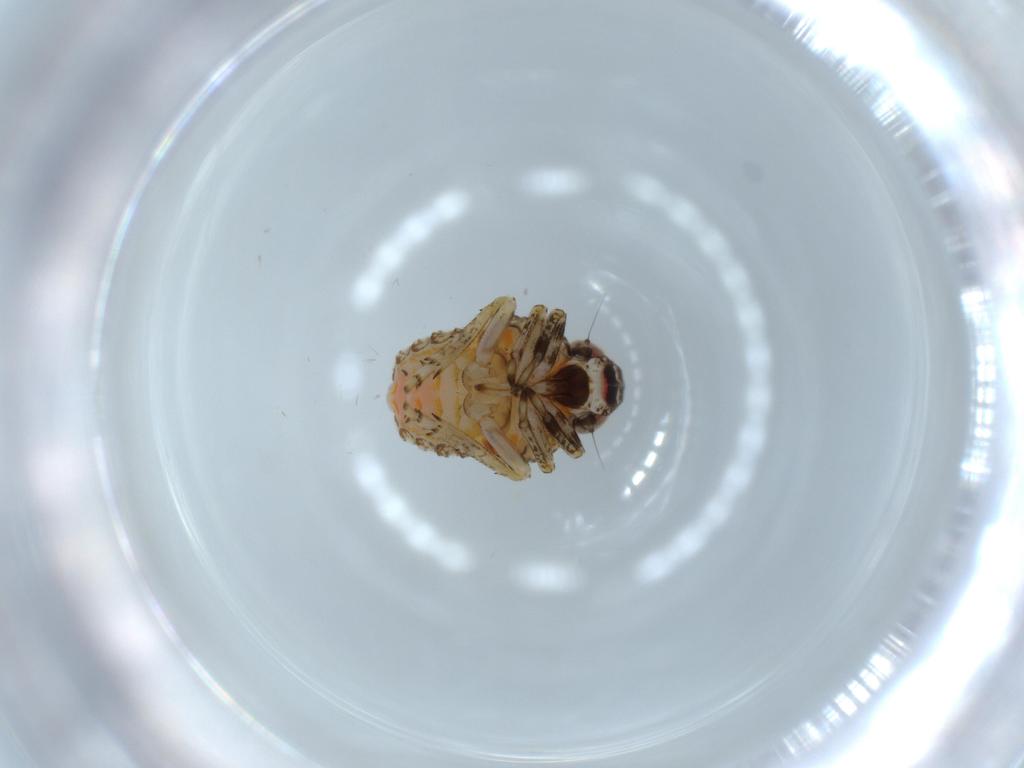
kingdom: Animalia
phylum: Arthropoda
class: Insecta
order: Hemiptera
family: Issidae
